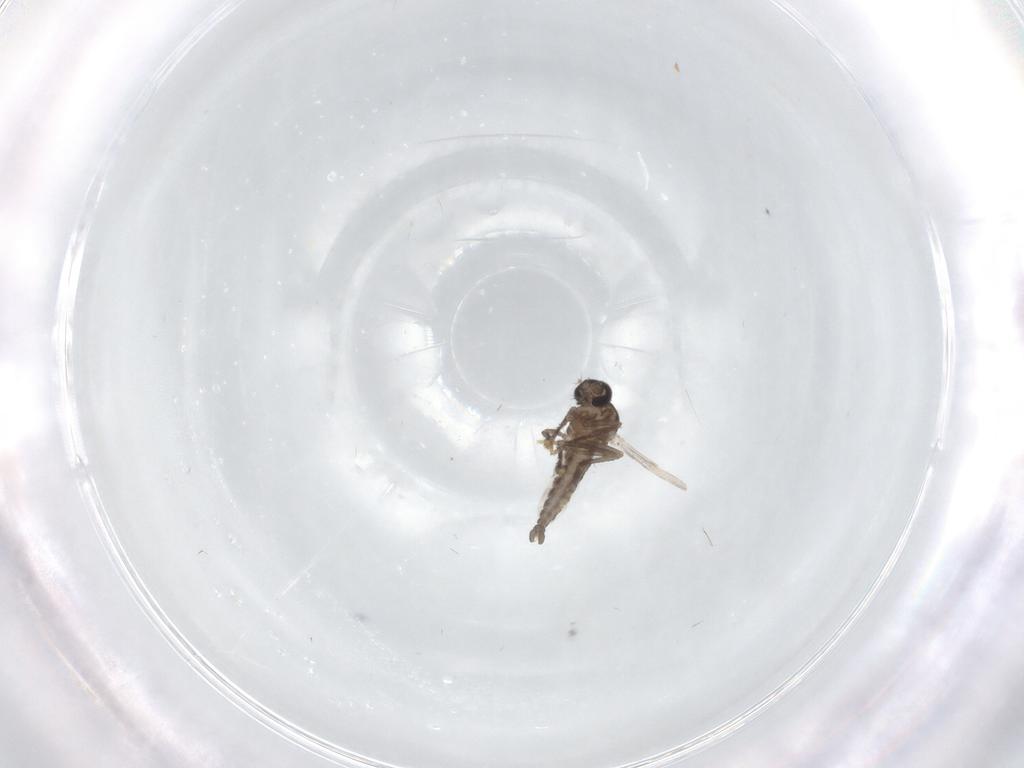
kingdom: Animalia
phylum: Arthropoda
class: Insecta
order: Diptera
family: Ceratopogonidae
